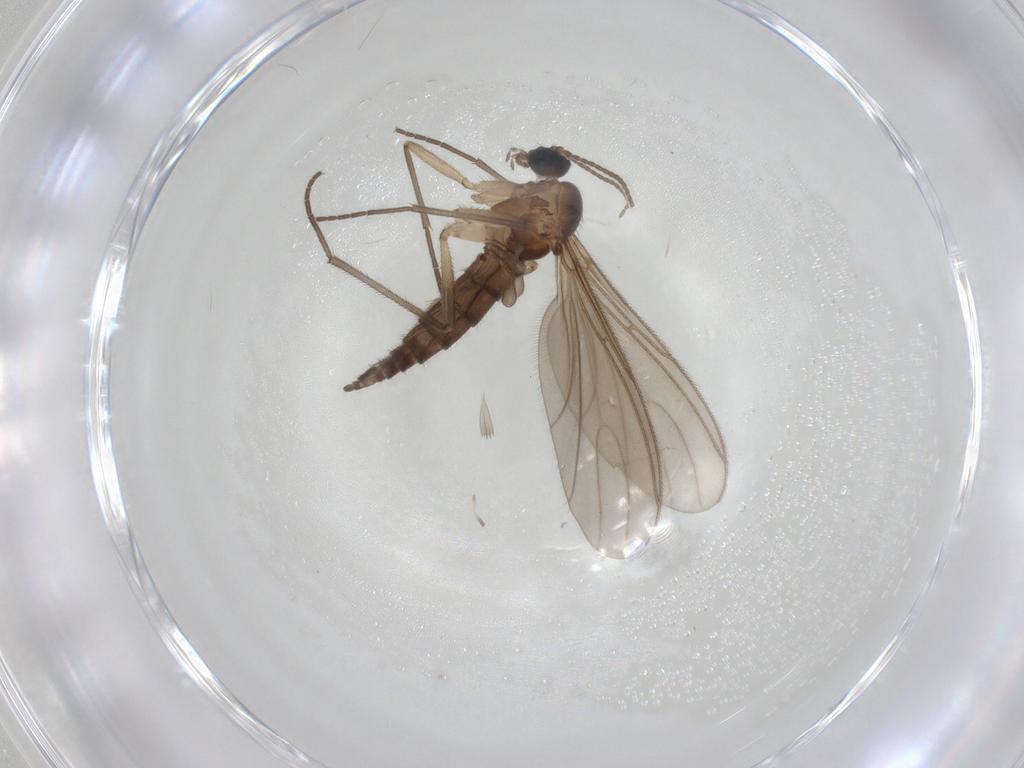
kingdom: Animalia
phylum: Arthropoda
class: Insecta
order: Diptera
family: Sciaridae
